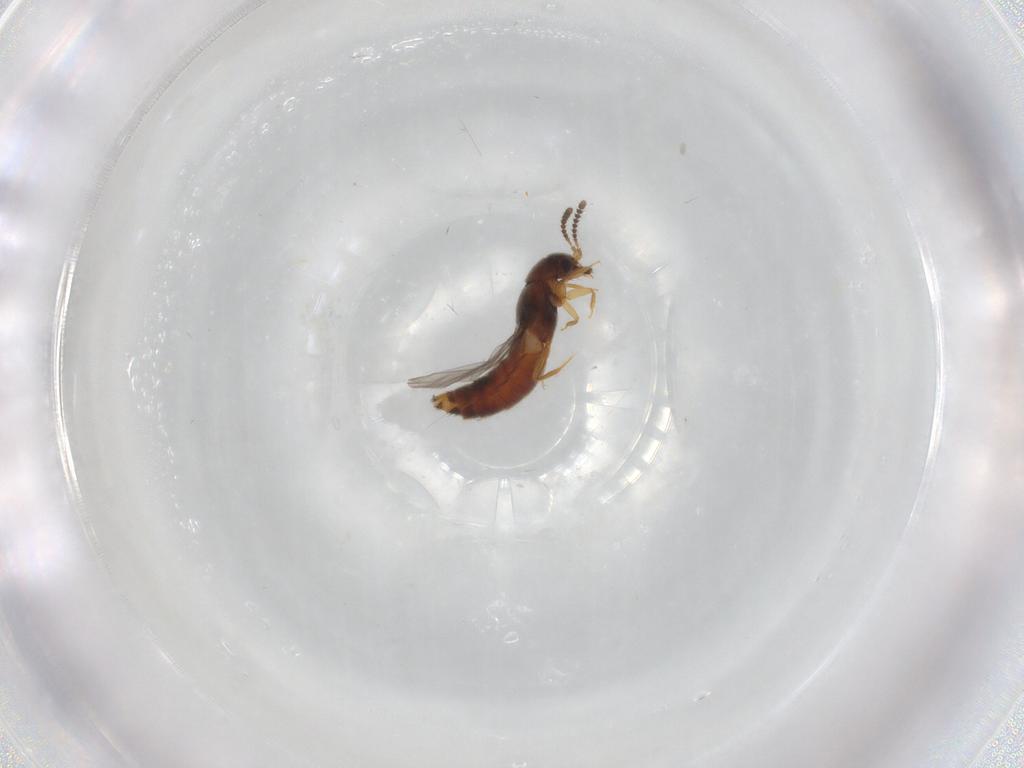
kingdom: Animalia
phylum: Arthropoda
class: Insecta
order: Coleoptera
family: Staphylinidae
